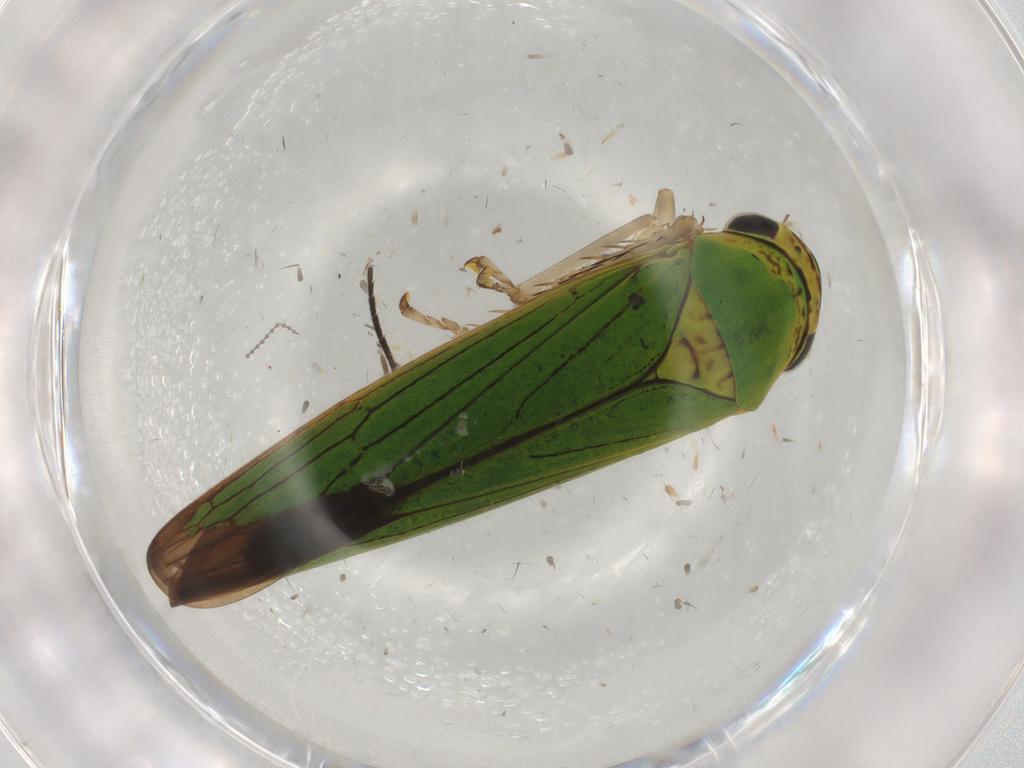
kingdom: Animalia
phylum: Arthropoda
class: Insecta
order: Hemiptera
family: Cicadellidae
